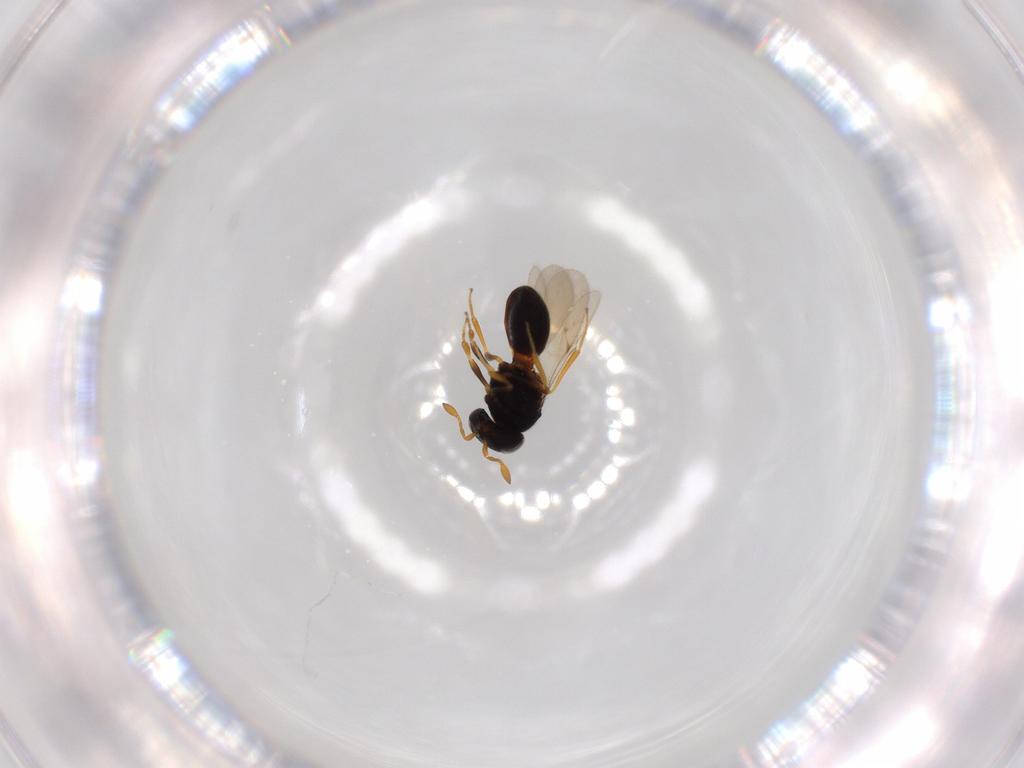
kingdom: Animalia
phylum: Arthropoda
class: Insecta
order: Hymenoptera
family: Scelionidae
